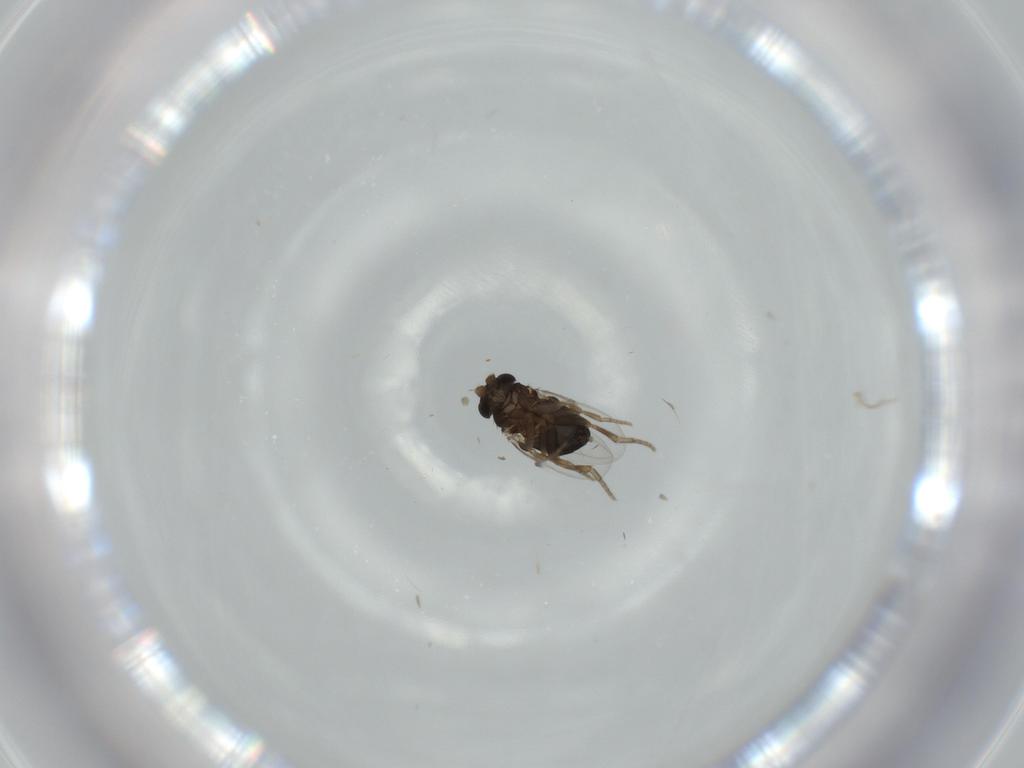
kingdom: Animalia
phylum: Arthropoda
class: Insecta
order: Diptera
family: Phoridae
